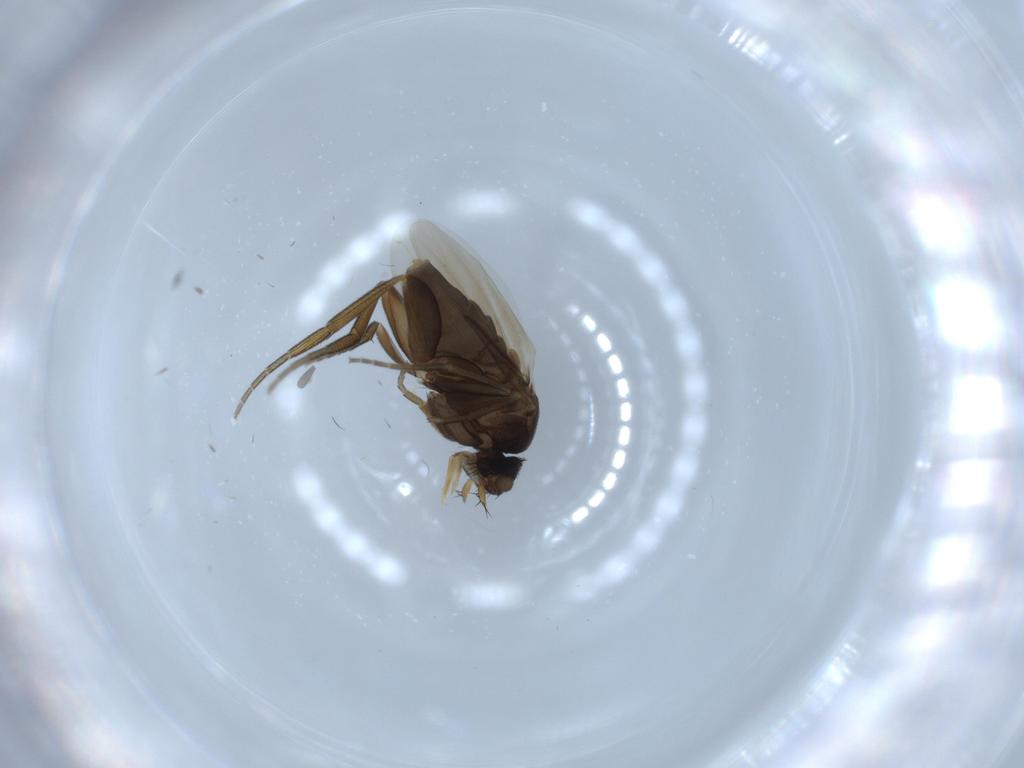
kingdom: Animalia
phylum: Arthropoda
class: Insecta
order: Diptera
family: Phoridae
